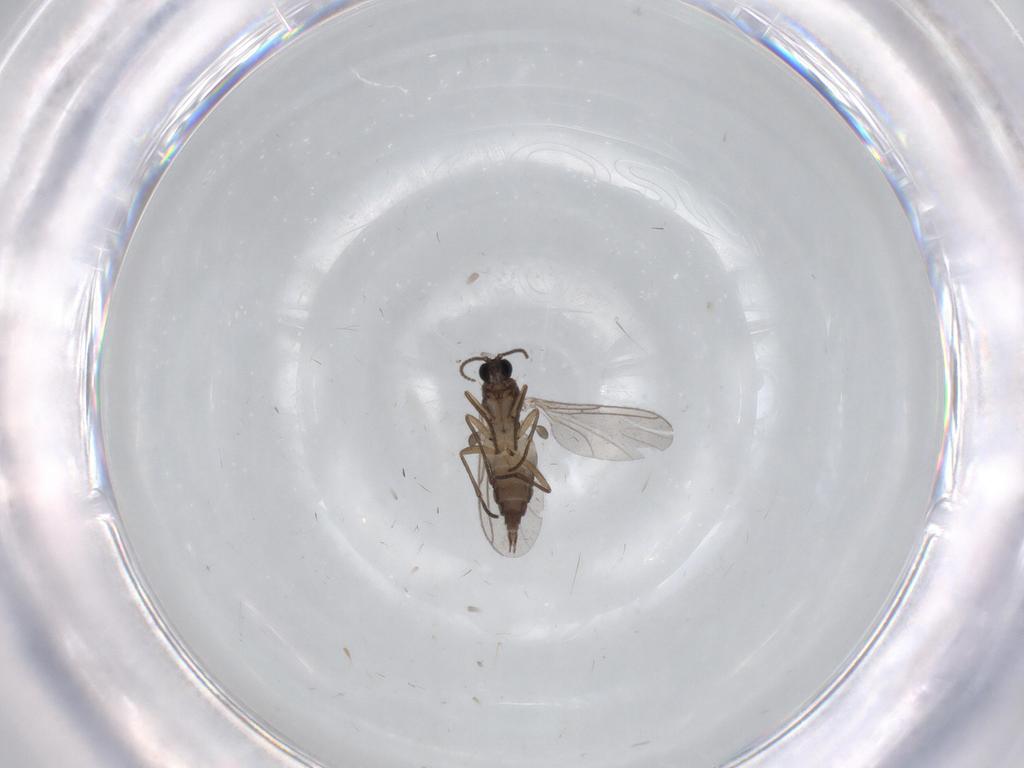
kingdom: Animalia
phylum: Arthropoda
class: Insecta
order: Diptera
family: Sciaridae
